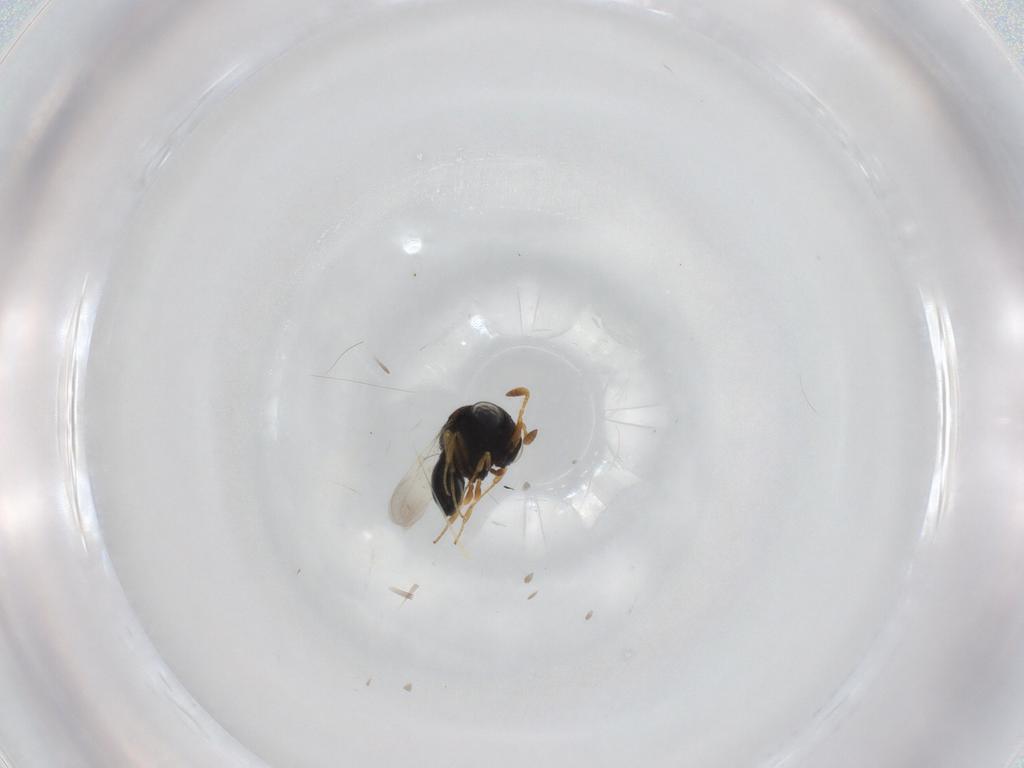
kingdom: Animalia
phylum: Arthropoda
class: Insecta
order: Hymenoptera
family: Scelionidae
